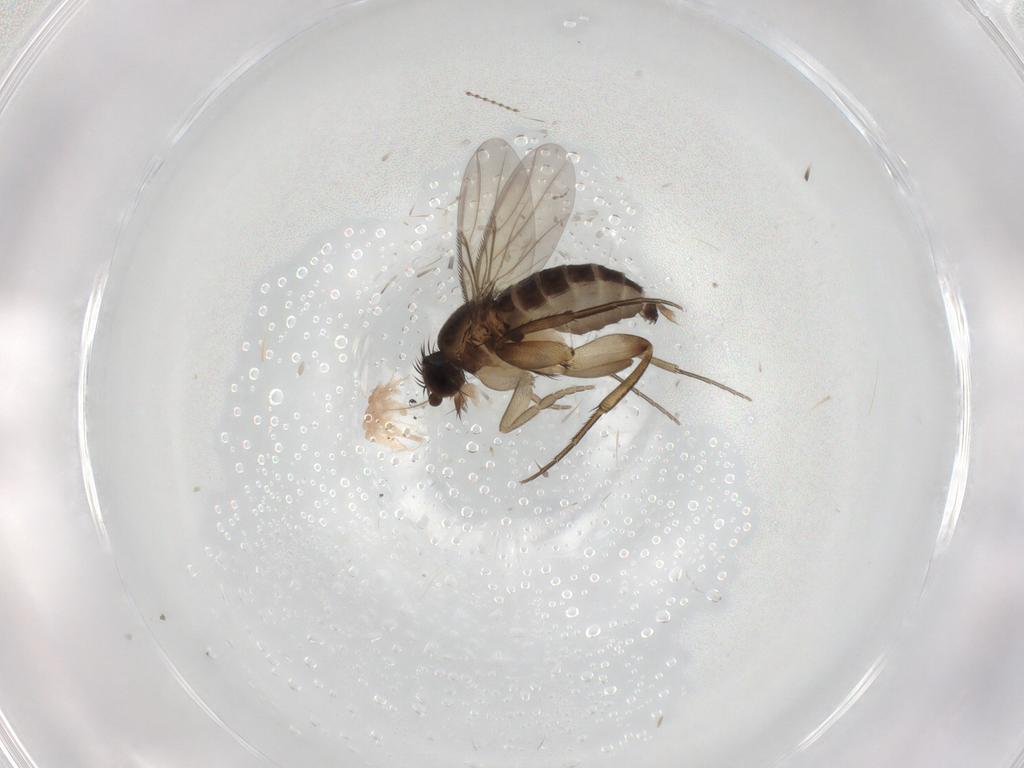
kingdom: Animalia
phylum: Arthropoda
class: Insecta
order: Diptera
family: Phoridae
